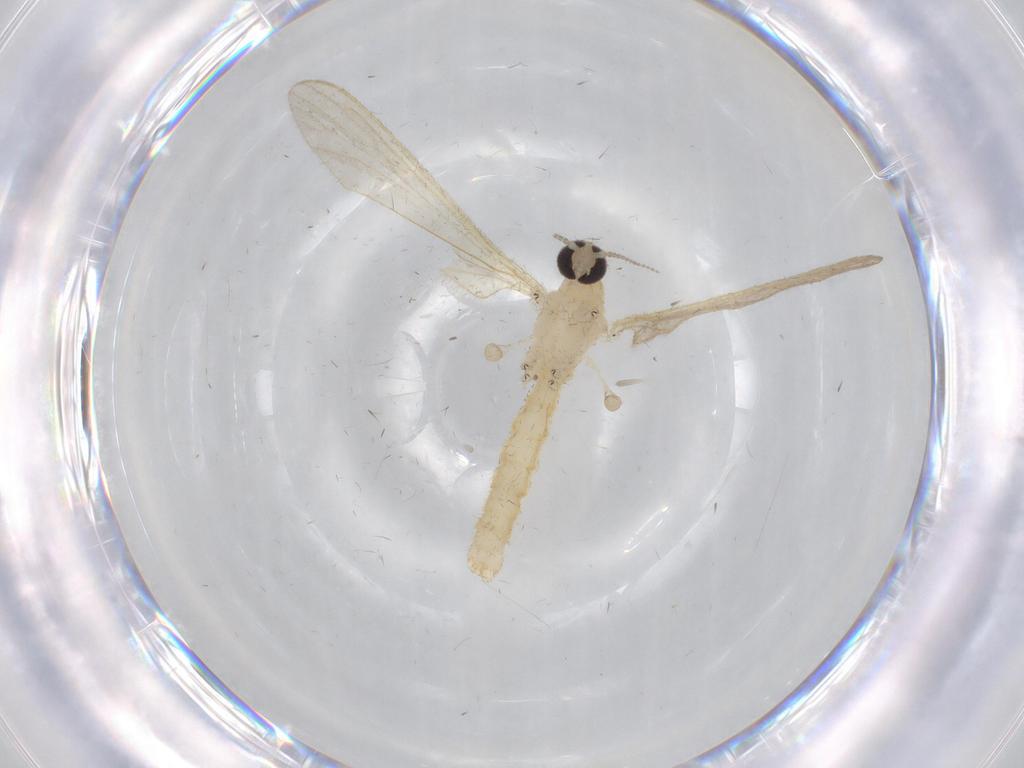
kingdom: Animalia
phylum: Arthropoda
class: Insecta
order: Diptera
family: Limoniidae
